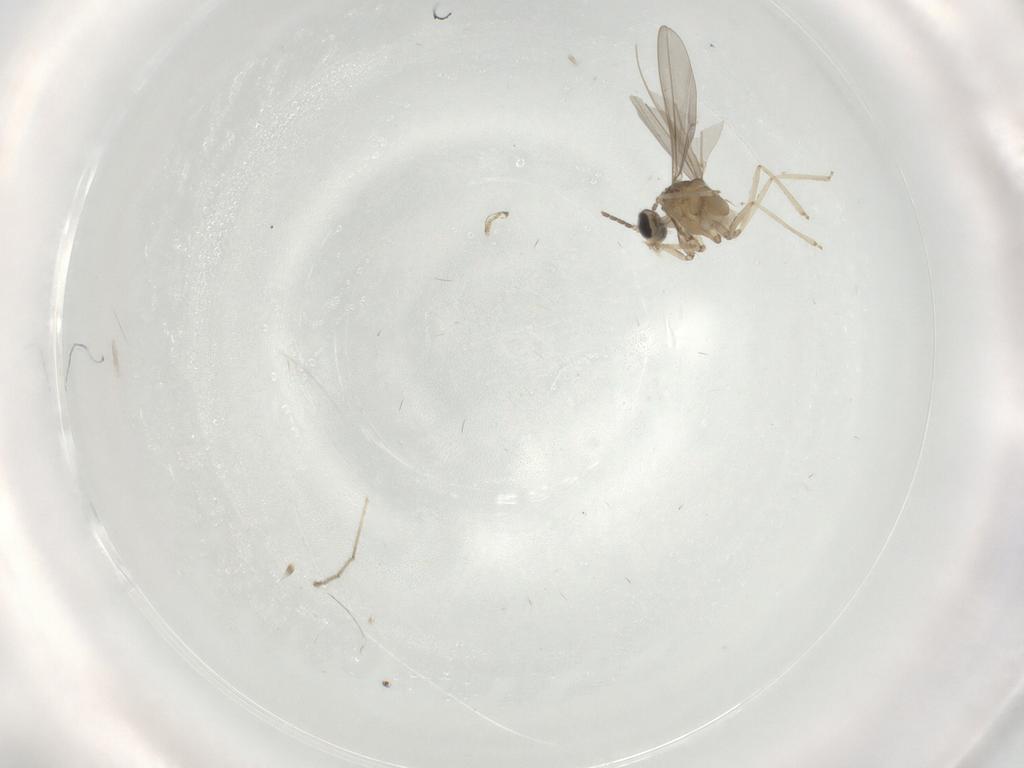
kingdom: Animalia
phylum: Arthropoda
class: Insecta
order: Diptera
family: Cecidomyiidae
